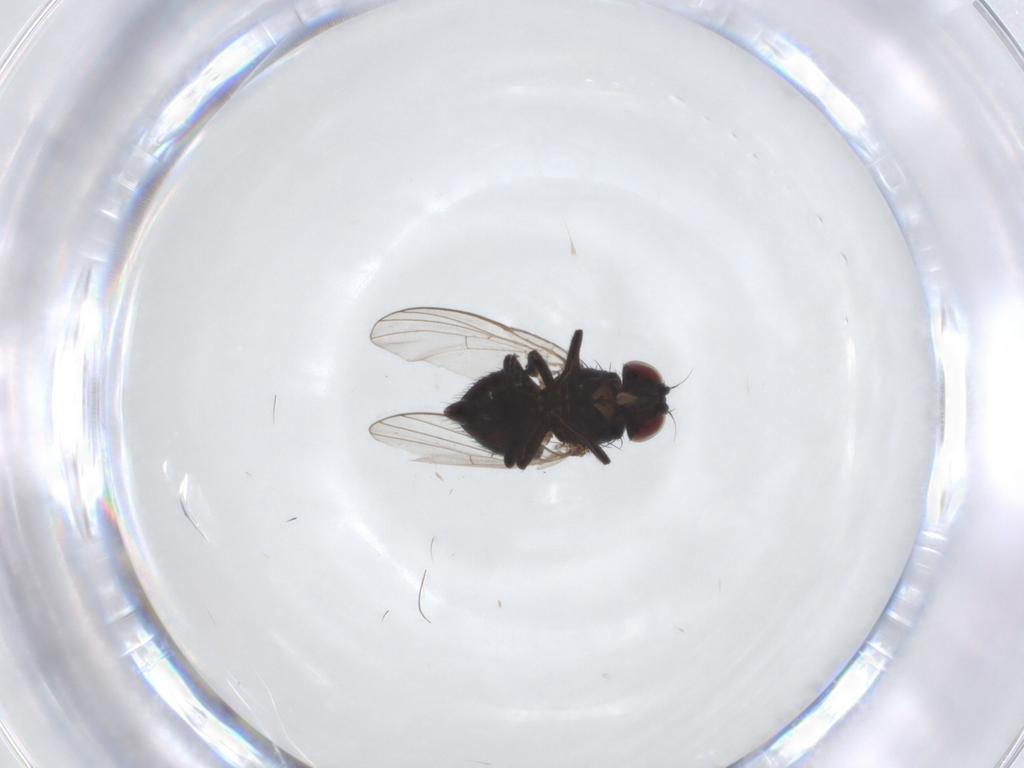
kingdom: Animalia
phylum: Arthropoda
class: Insecta
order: Diptera
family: Agromyzidae
